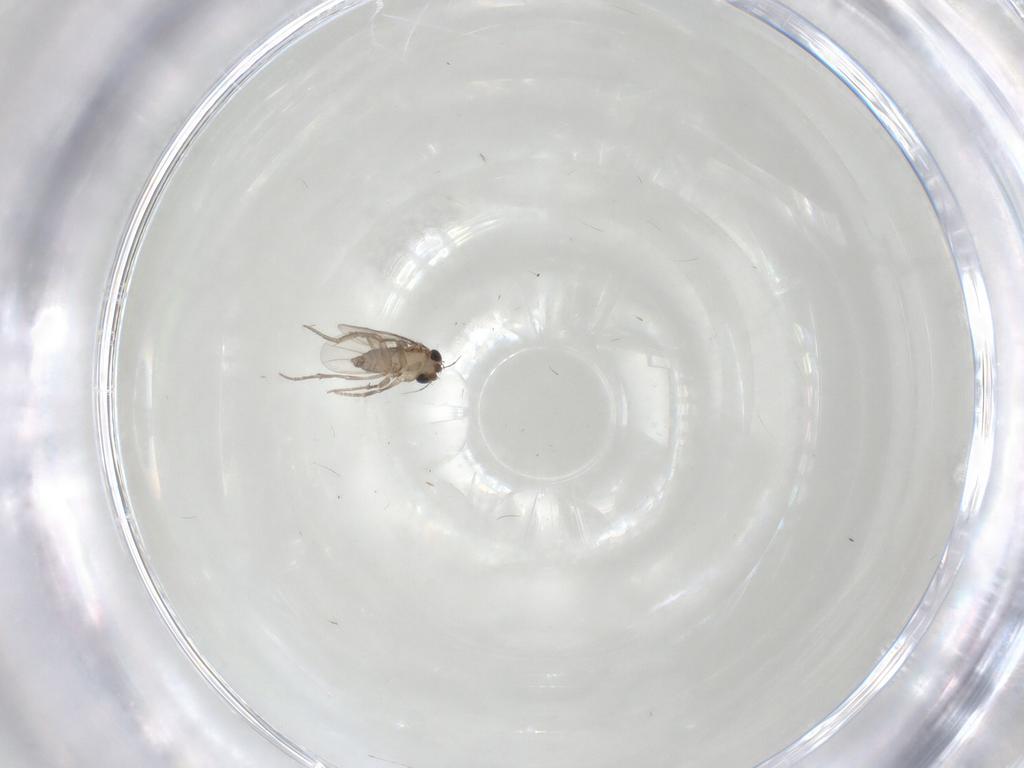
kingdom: Animalia
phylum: Arthropoda
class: Insecta
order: Diptera
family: Phoridae
